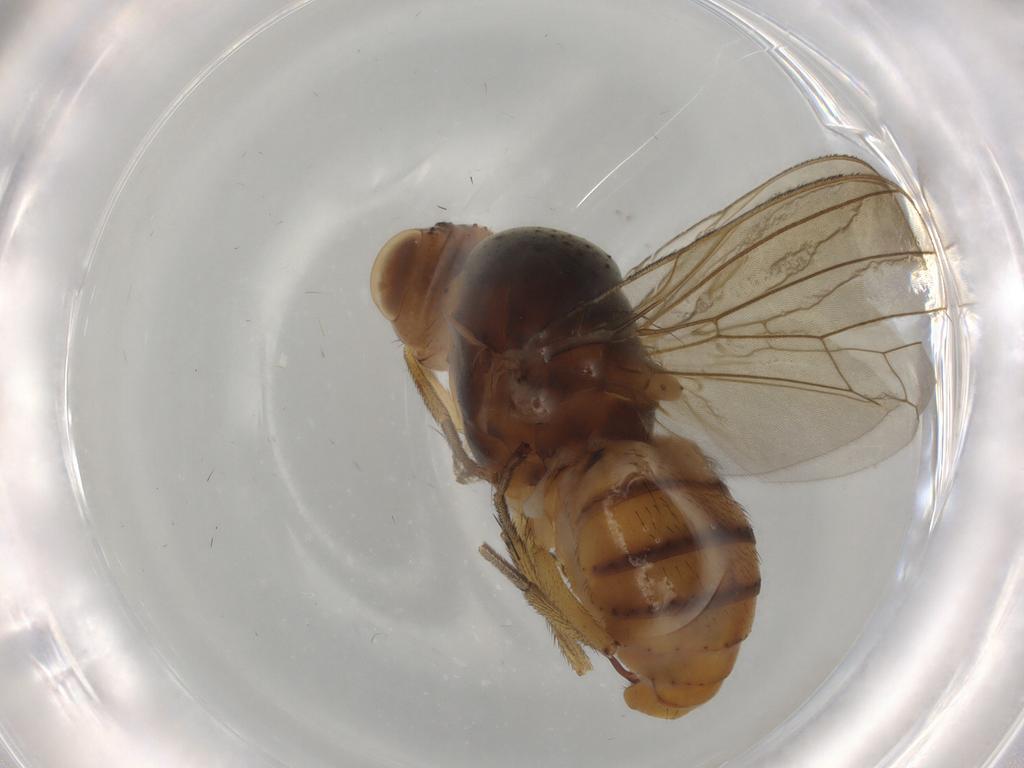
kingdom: Animalia
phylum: Arthropoda
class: Insecta
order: Diptera
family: Dolichopodidae
